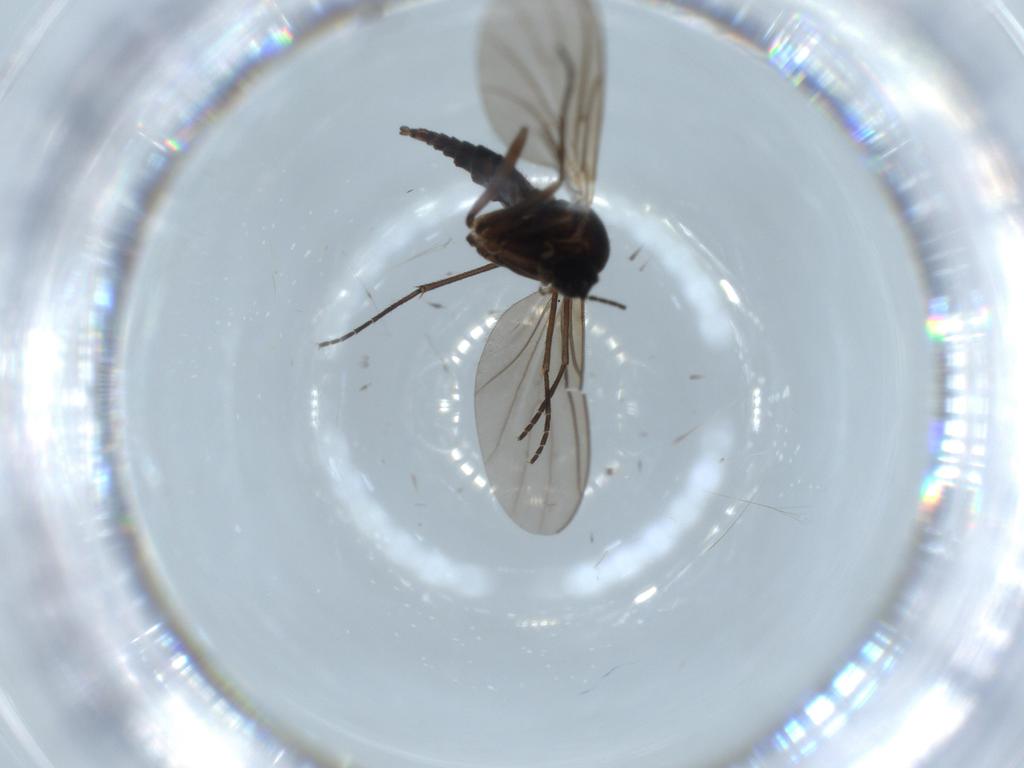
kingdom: Animalia
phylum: Arthropoda
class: Insecta
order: Diptera
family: Sciaridae
